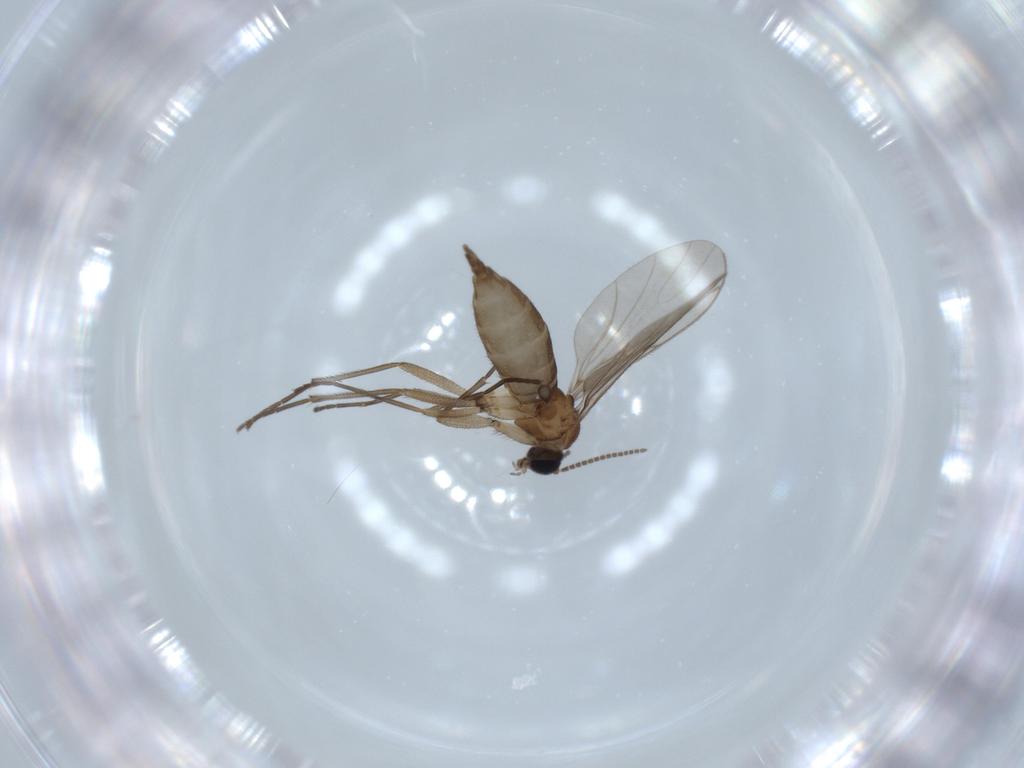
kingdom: Animalia
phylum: Arthropoda
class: Insecta
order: Diptera
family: Sciaridae
